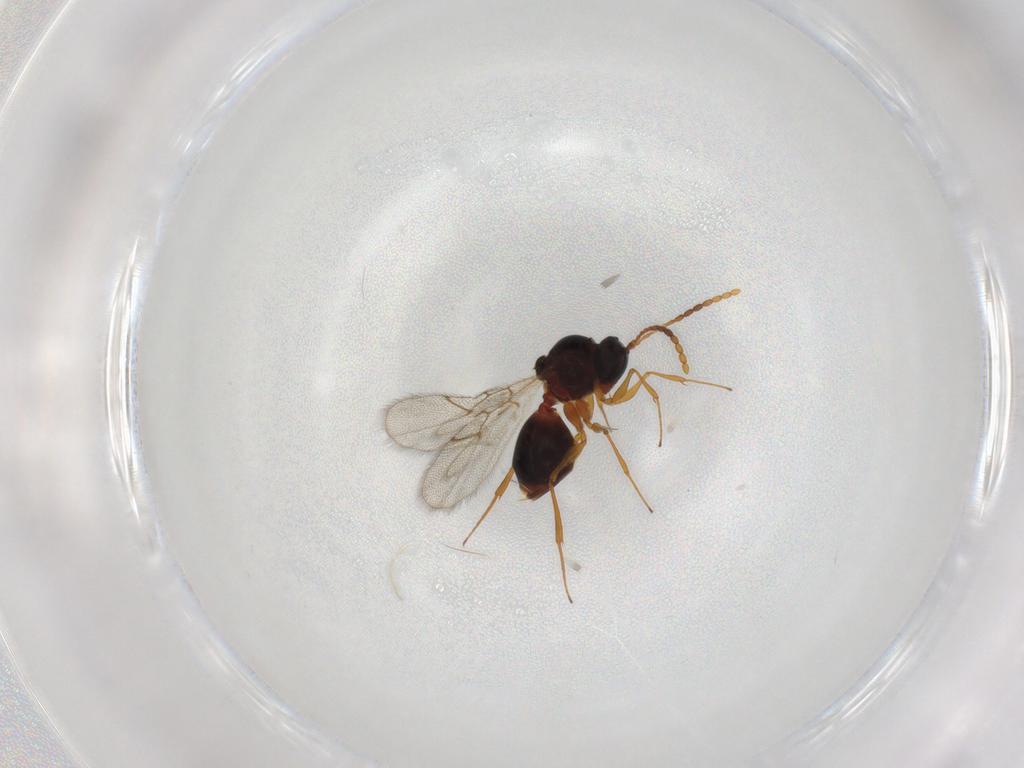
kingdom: Animalia
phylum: Arthropoda
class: Insecta
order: Hymenoptera
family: Figitidae
